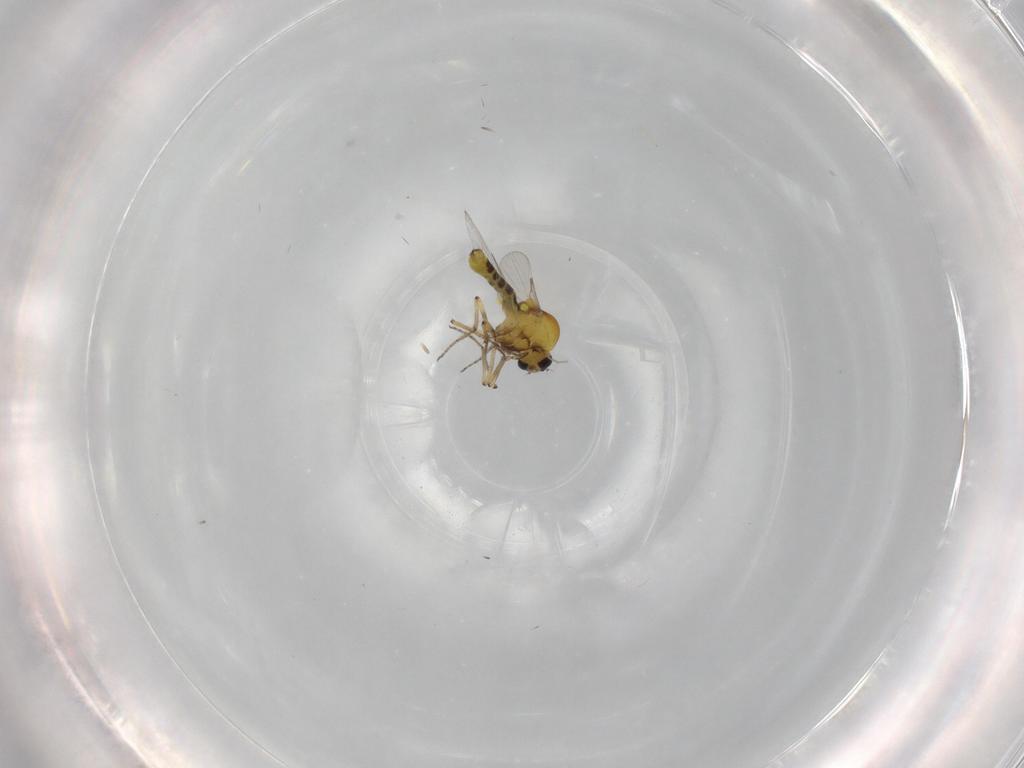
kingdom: Animalia
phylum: Arthropoda
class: Insecta
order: Diptera
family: Ceratopogonidae
